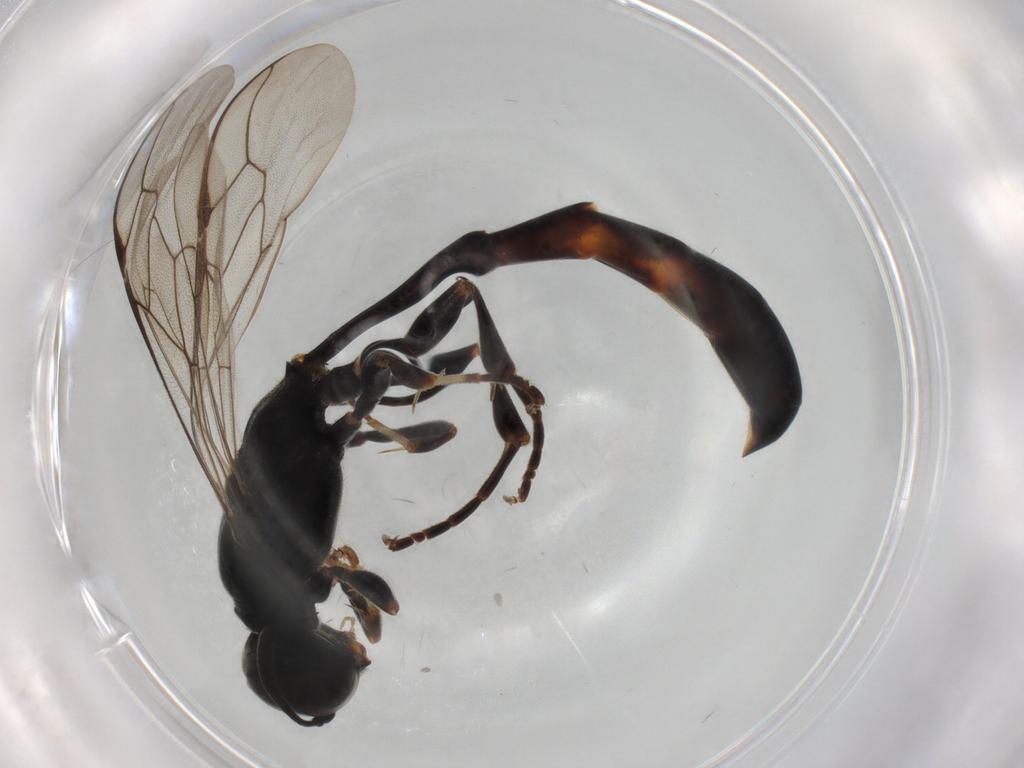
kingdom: Animalia
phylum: Arthropoda
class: Insecta
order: Hymenoptera
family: Crabronidae
